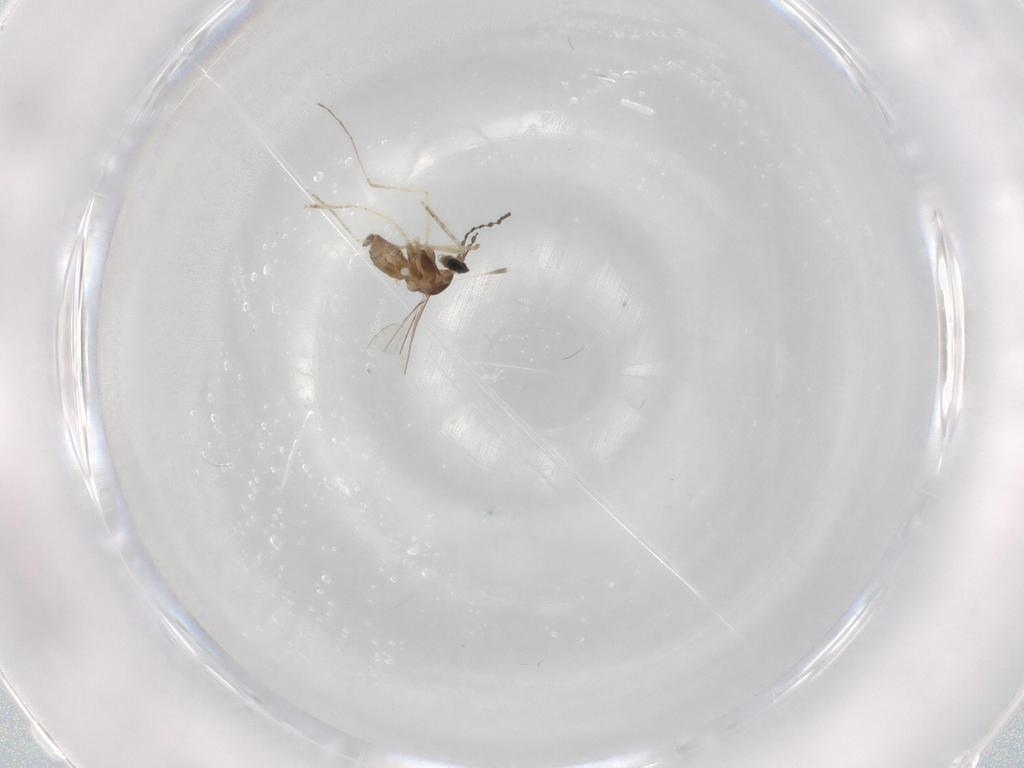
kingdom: Animalia
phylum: Arthropoda
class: Insecta
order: Diptera
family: Cecidomyiidae
